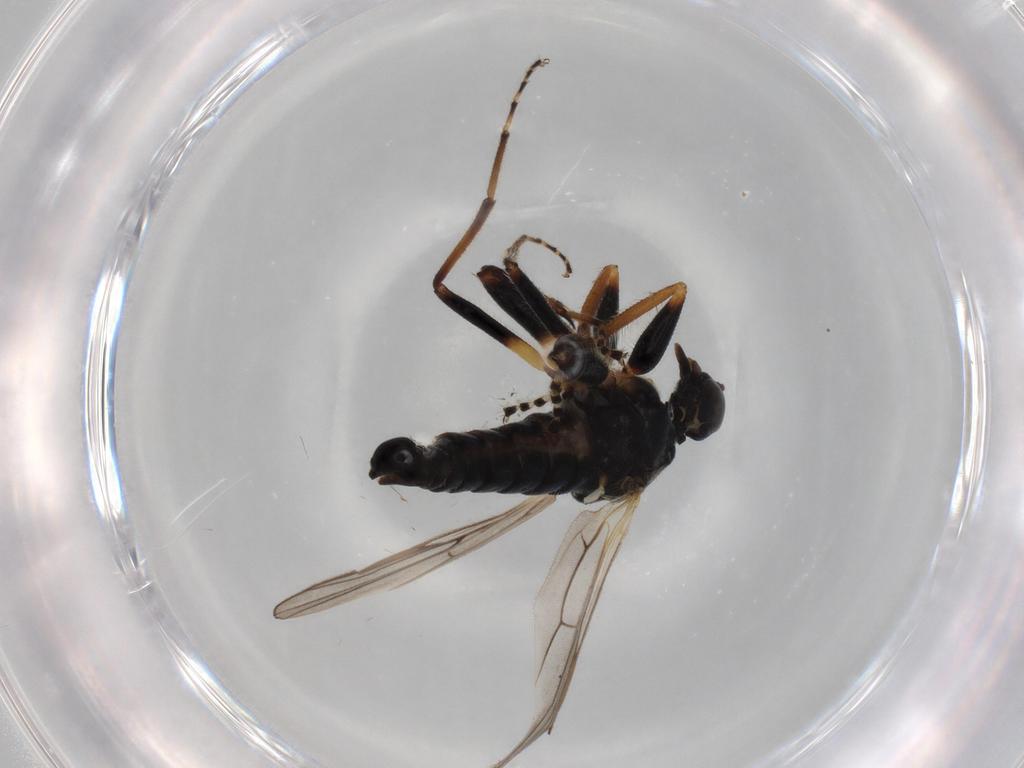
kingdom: Animalia
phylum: Arthropoda
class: Insecta
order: Diptera
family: Hybotidae
